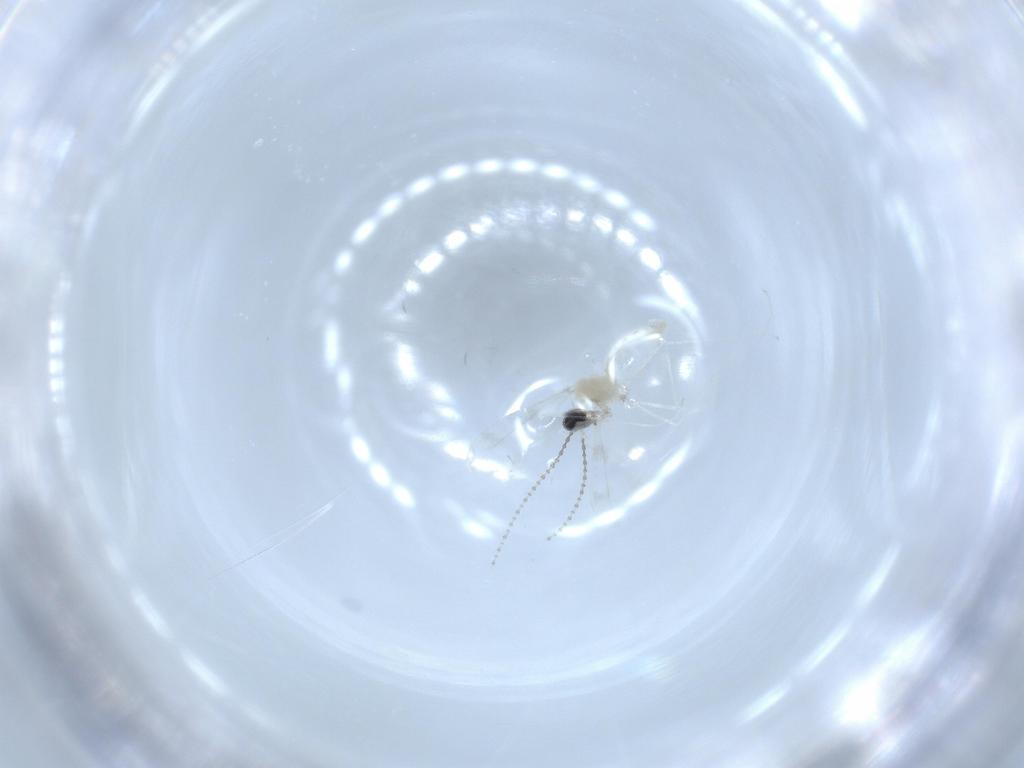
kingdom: Animalia
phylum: Arthropoda
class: Insecta
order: Diptera
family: Cecidomyiidae
